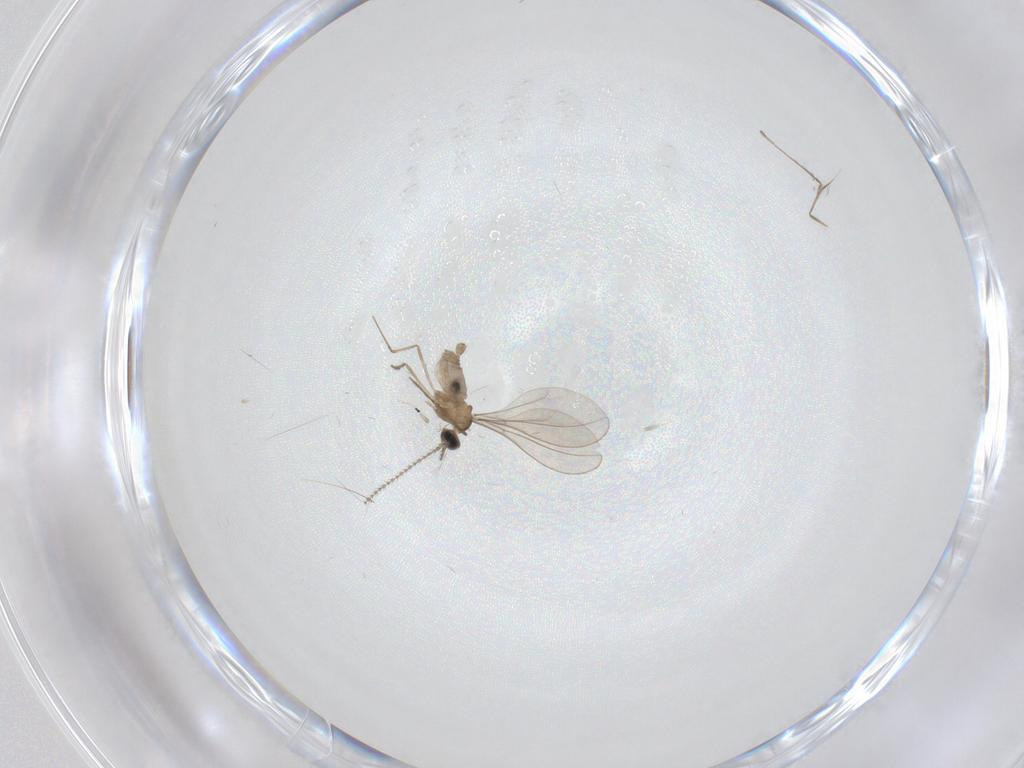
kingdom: Animalia
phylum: Arthropoda
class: Insecta
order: Diptera
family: Cecidomyiidae
